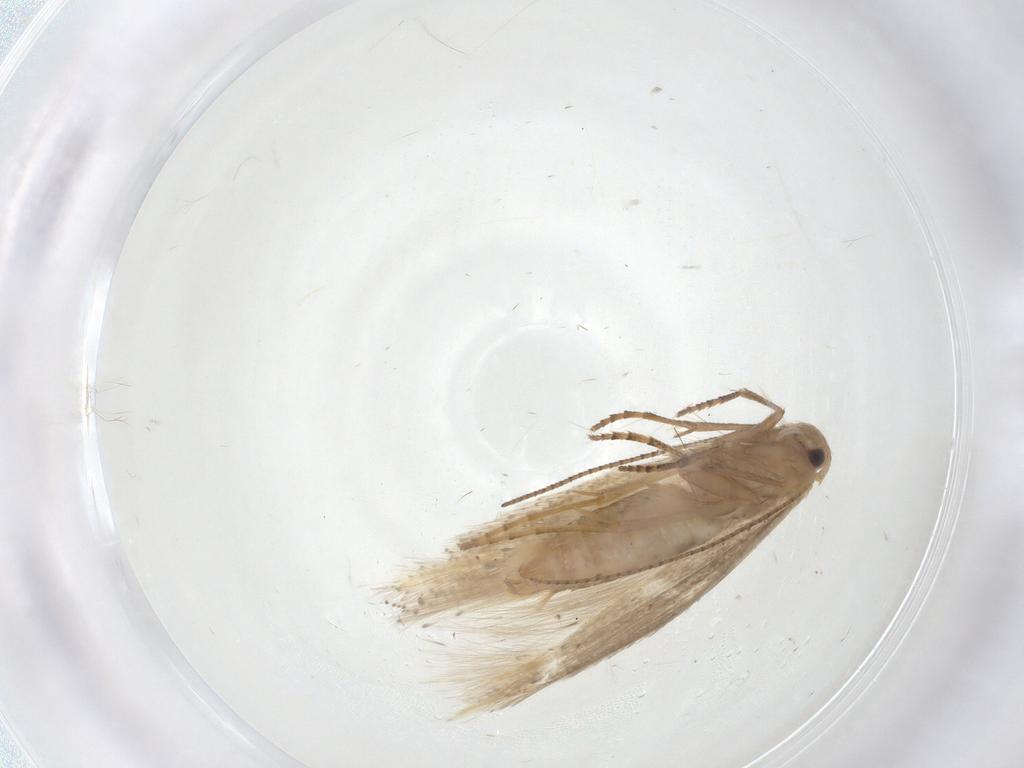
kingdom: Animalia
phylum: Arthropoda
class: Insecta
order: Lepidoptera
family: Bucculatricidae
